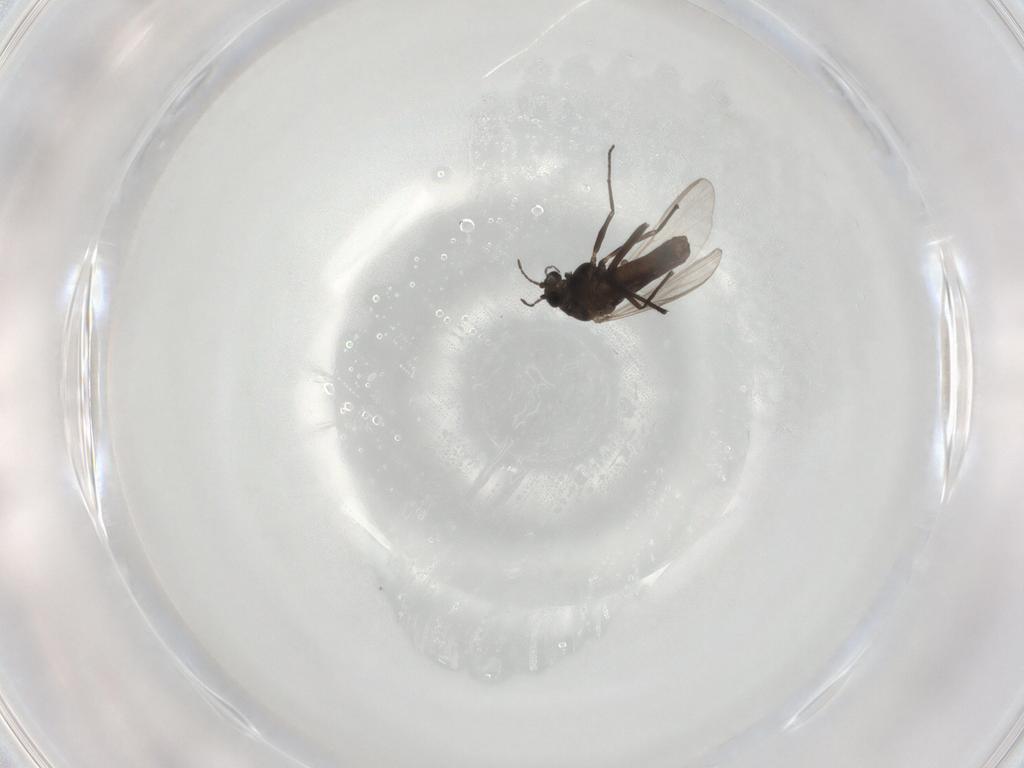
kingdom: Animalia
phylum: Arthropoda
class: Insecta
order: Diptera
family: Chironomidae
